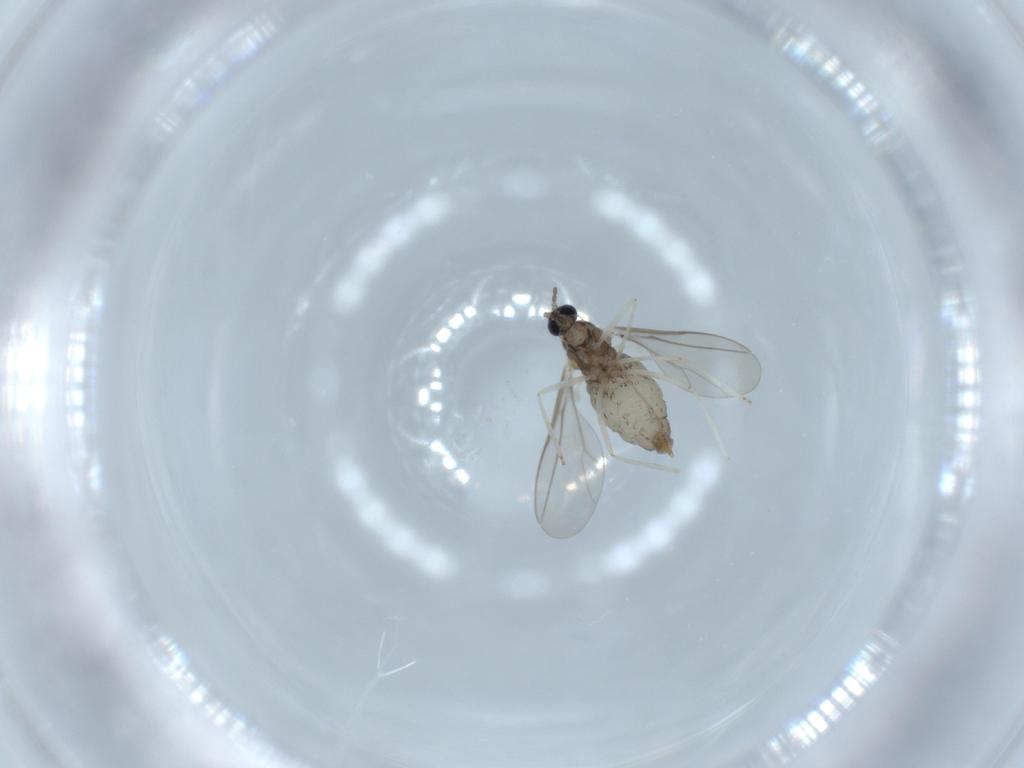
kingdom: Animalia
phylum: Arthropoda
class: Insecta
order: Diptera
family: Cecidomyiidae
